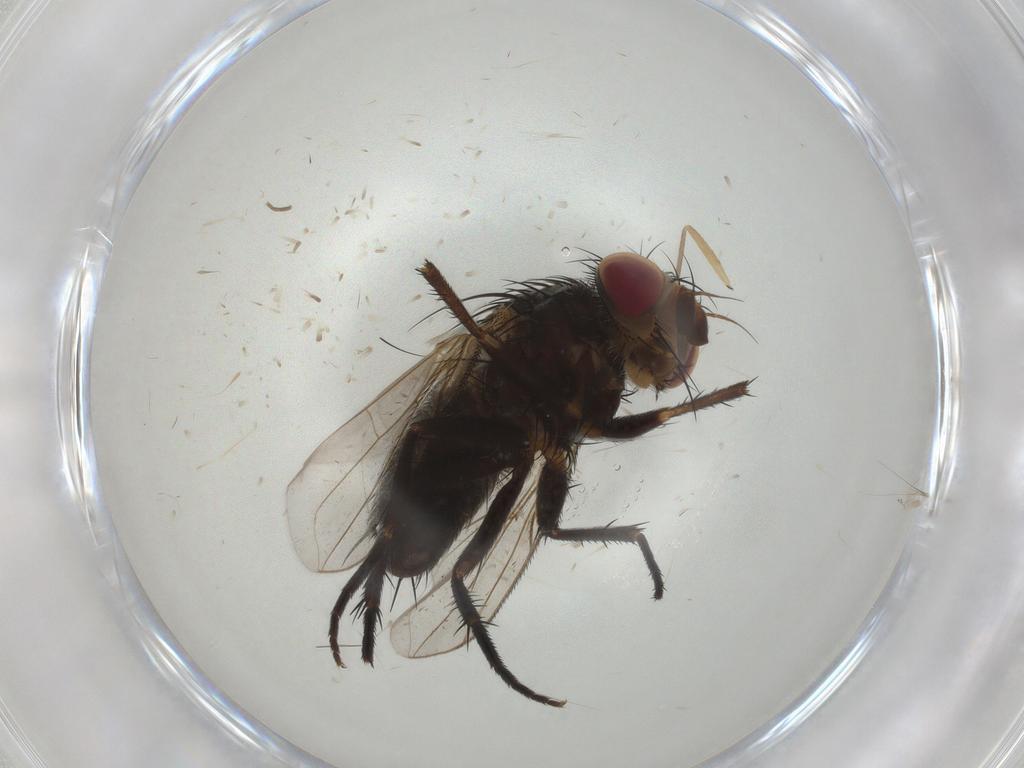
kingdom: Animalia
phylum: Arthropoda
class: Insecta
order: Diptera
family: Tachinidae
